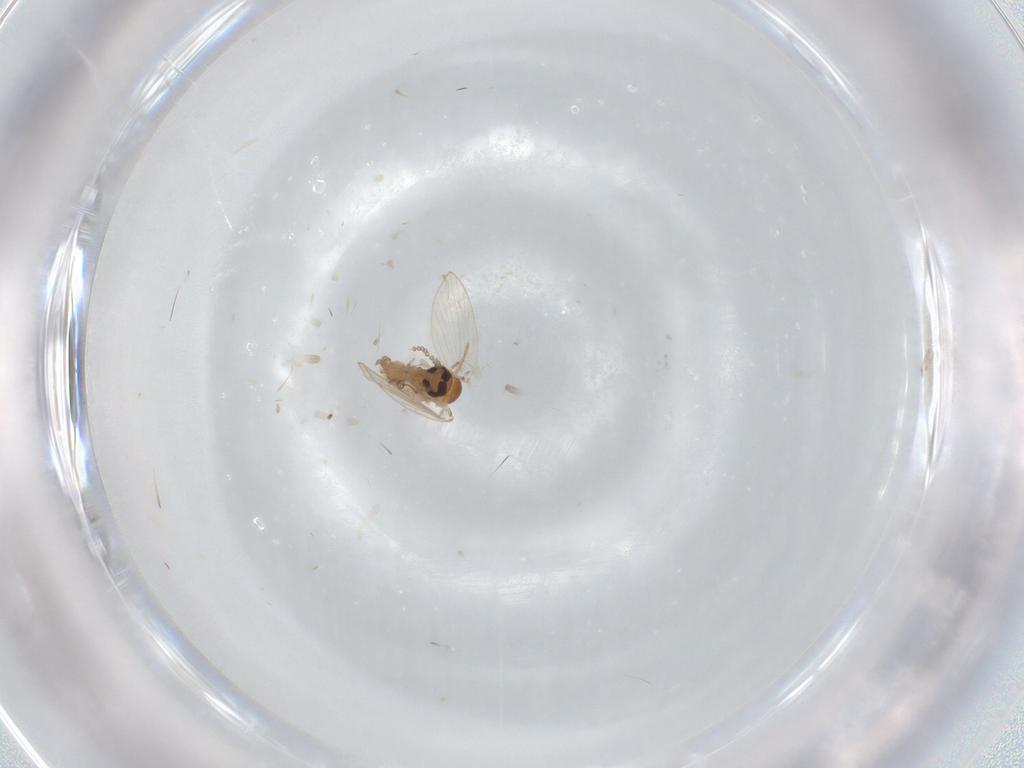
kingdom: Animalia
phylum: Arthropoda
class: Insecta
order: Diptera
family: Psychodidae
